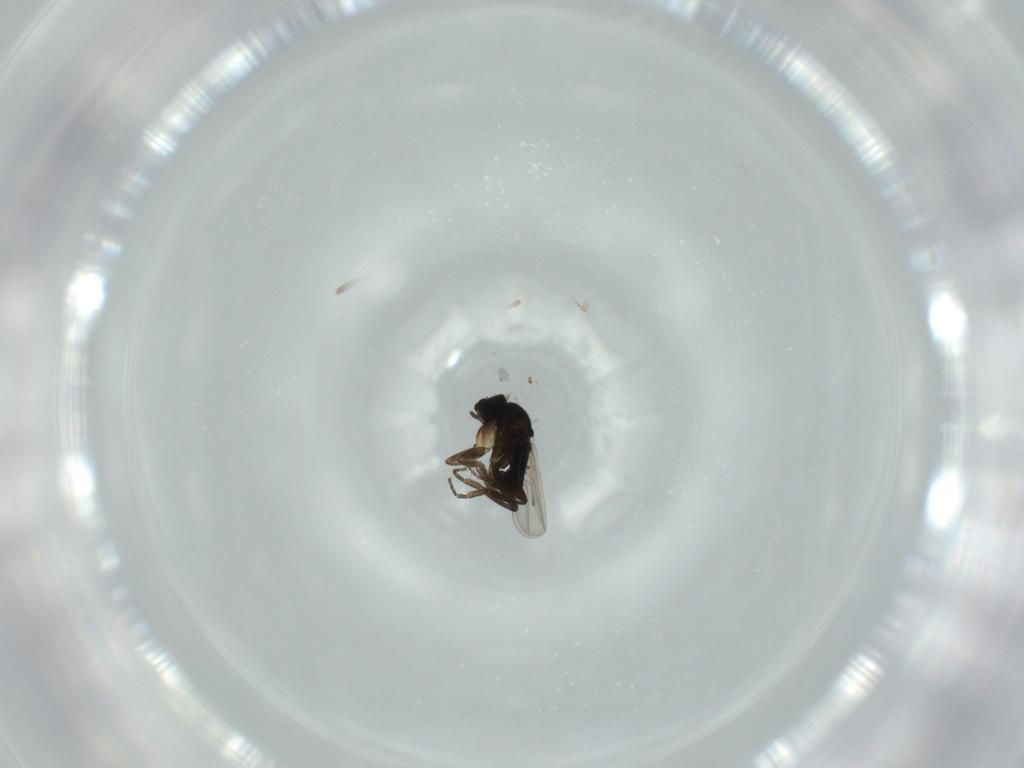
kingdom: Animalia
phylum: Arthropoda
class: Insecta
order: Diptera
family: Phoridae
